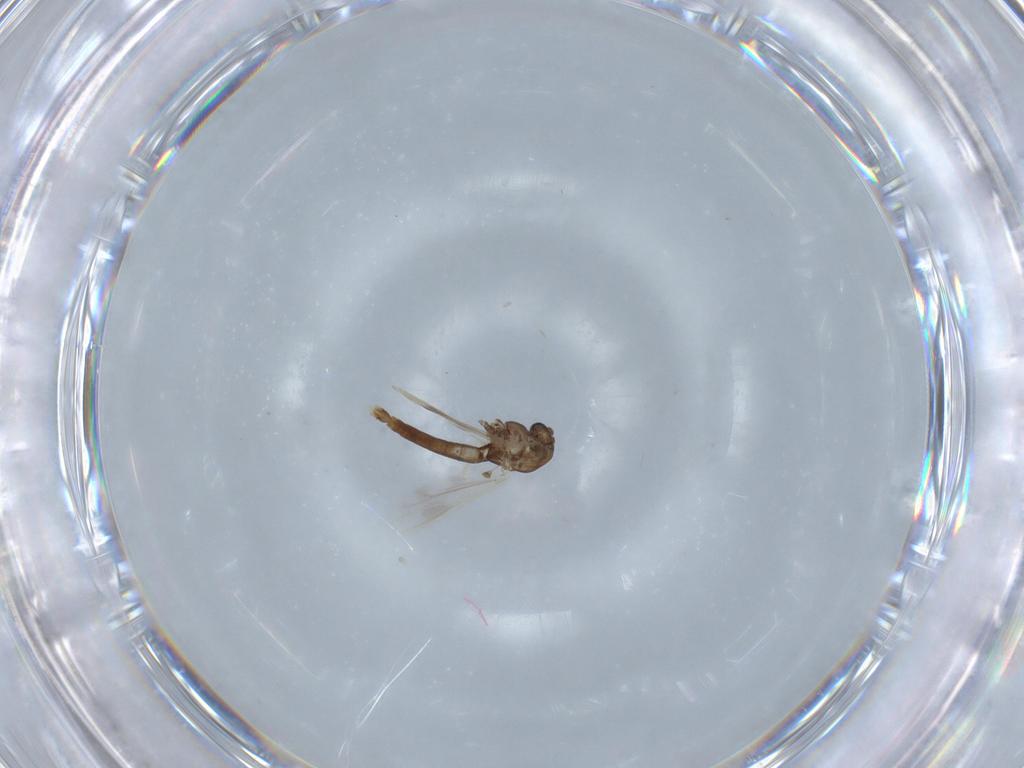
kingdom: Animalia
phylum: Arthropoda
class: Insecta
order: Diptera
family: Chironomidae
